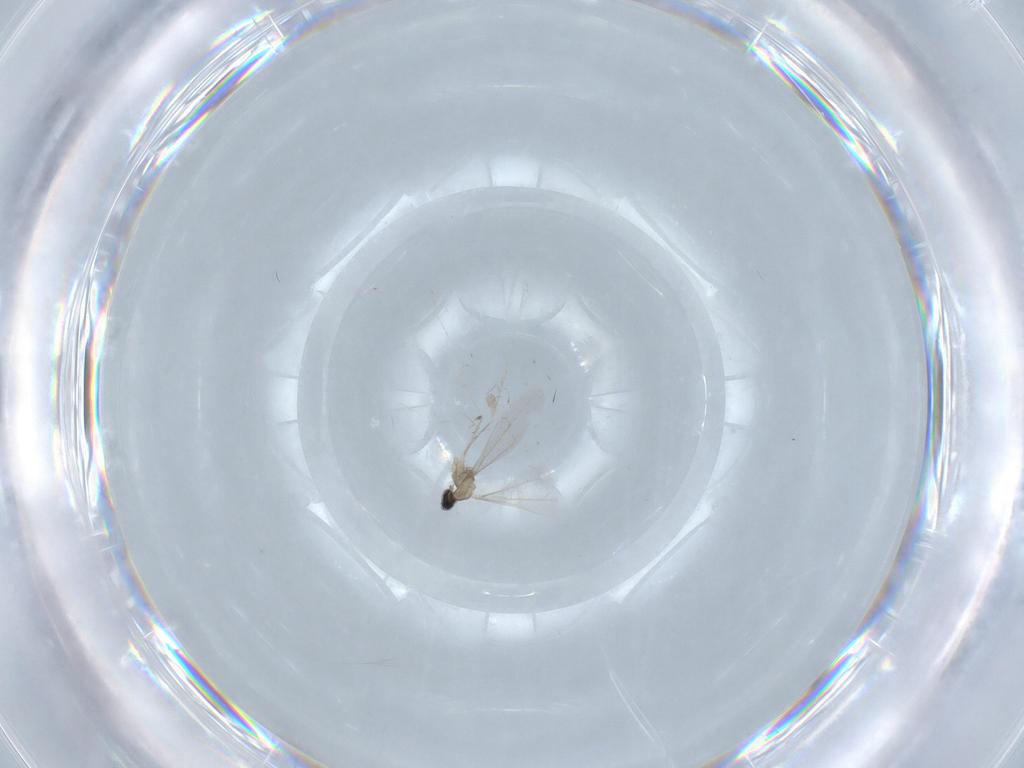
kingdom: Animalia
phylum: Arthropoda
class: Insecta
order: Diptera
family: Cecidomyiidae
